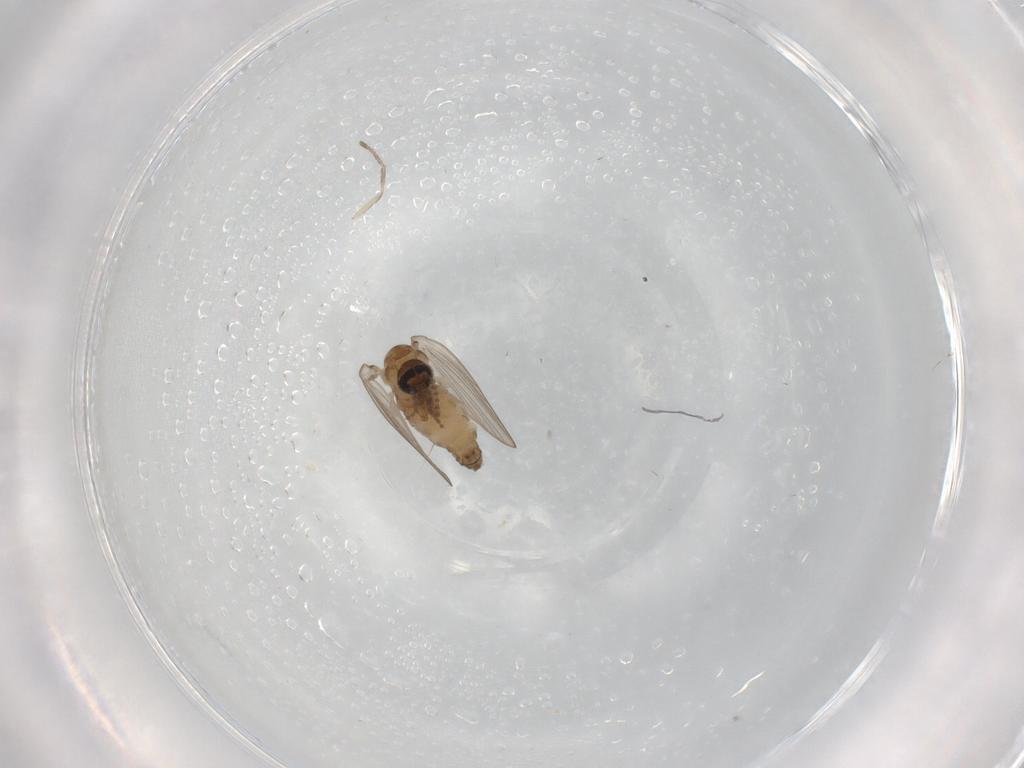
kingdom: Animalia
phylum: Arthropoda
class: Insecta
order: Diptera
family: Psychodidae
